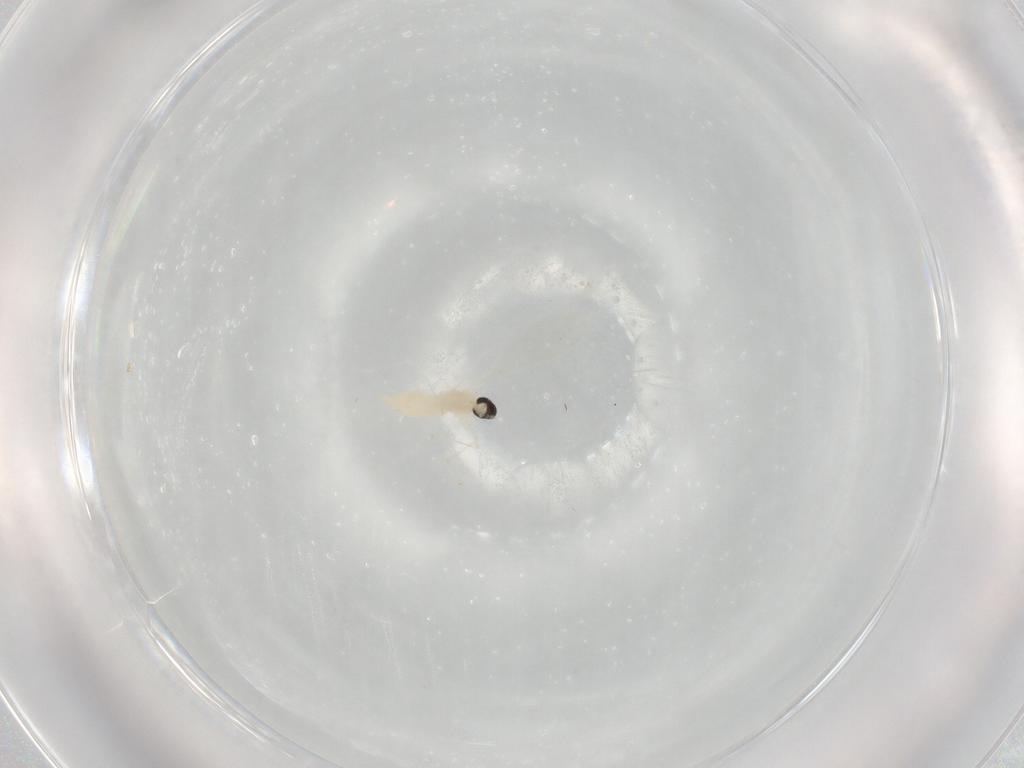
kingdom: Animalia
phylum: Arthropoda
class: Insecta
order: Diptera
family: Cecidomyiidae
